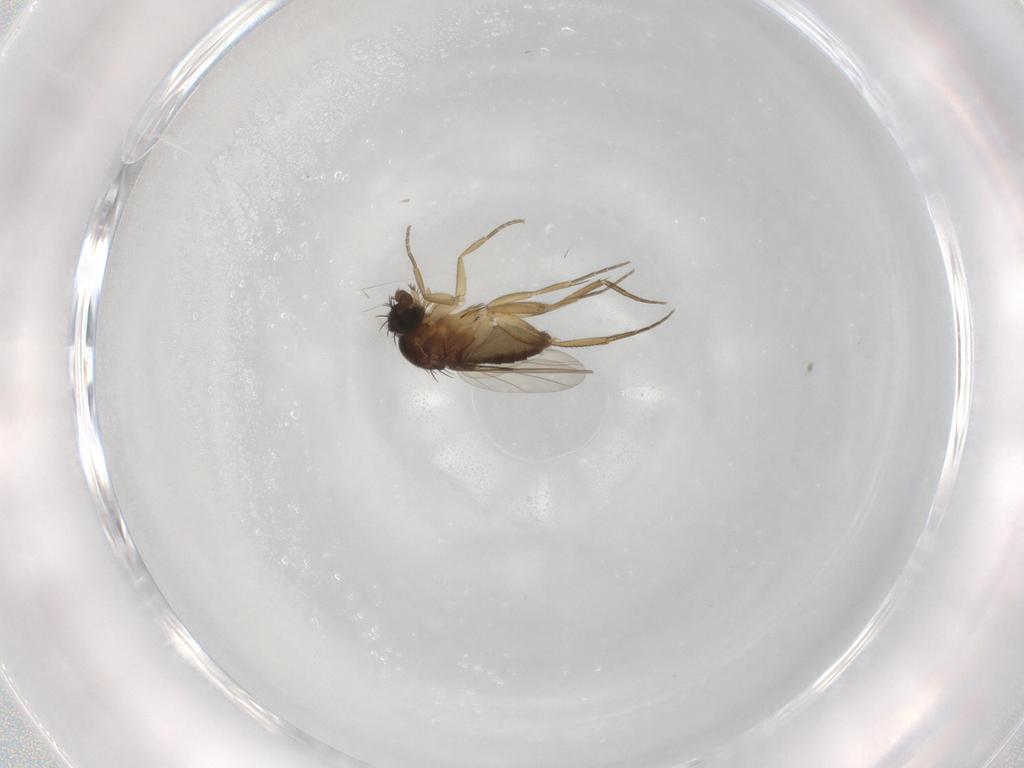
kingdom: Animalia
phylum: Arthropoda
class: Insecta
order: Diptera
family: Phoridae
